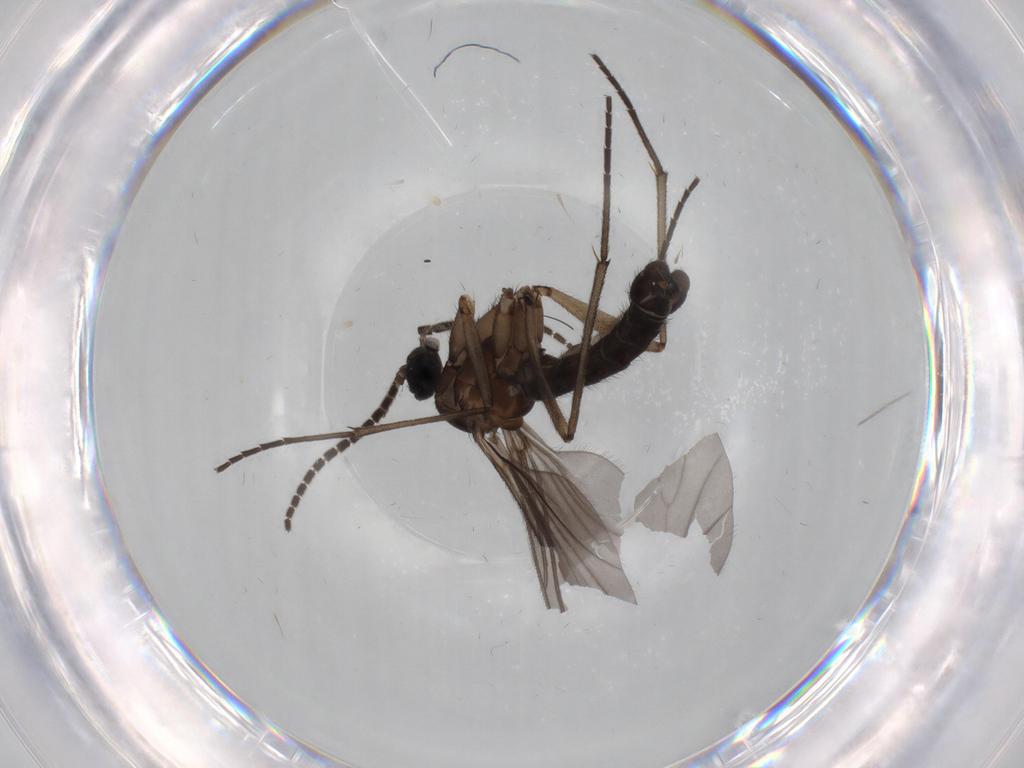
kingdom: Animalia
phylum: Arthropoda
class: Insecta
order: Diptera
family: Sciaridae
